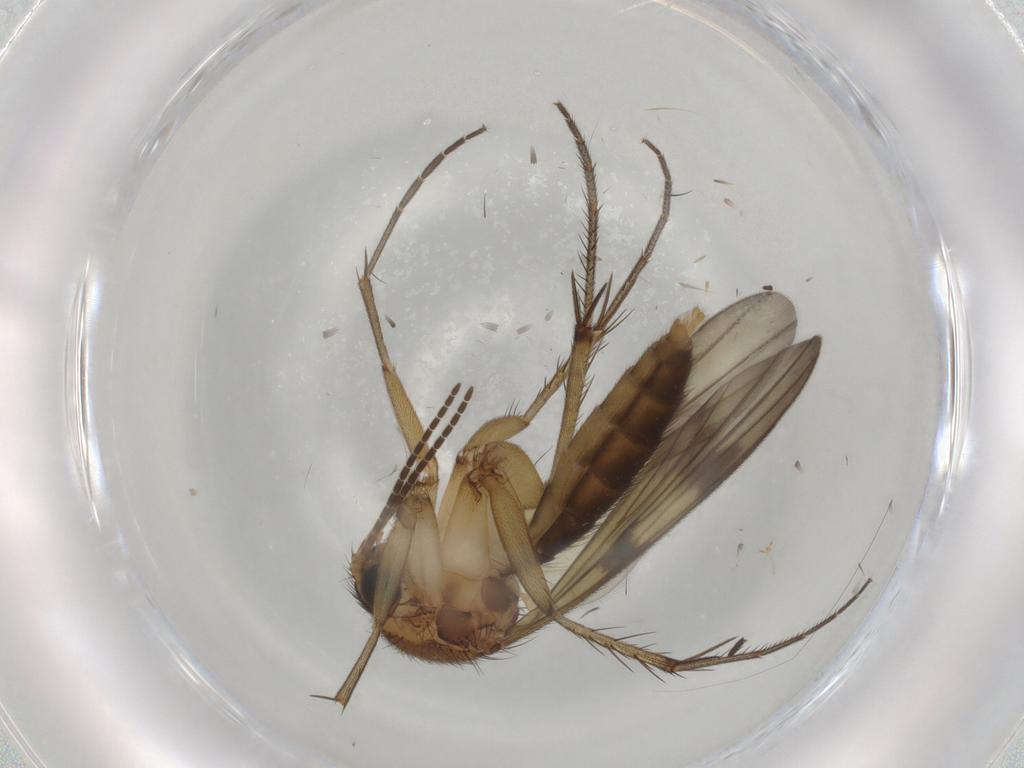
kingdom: Animalia
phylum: Arthropoda
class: Insecta
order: Diptera
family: Mycetophilidae
